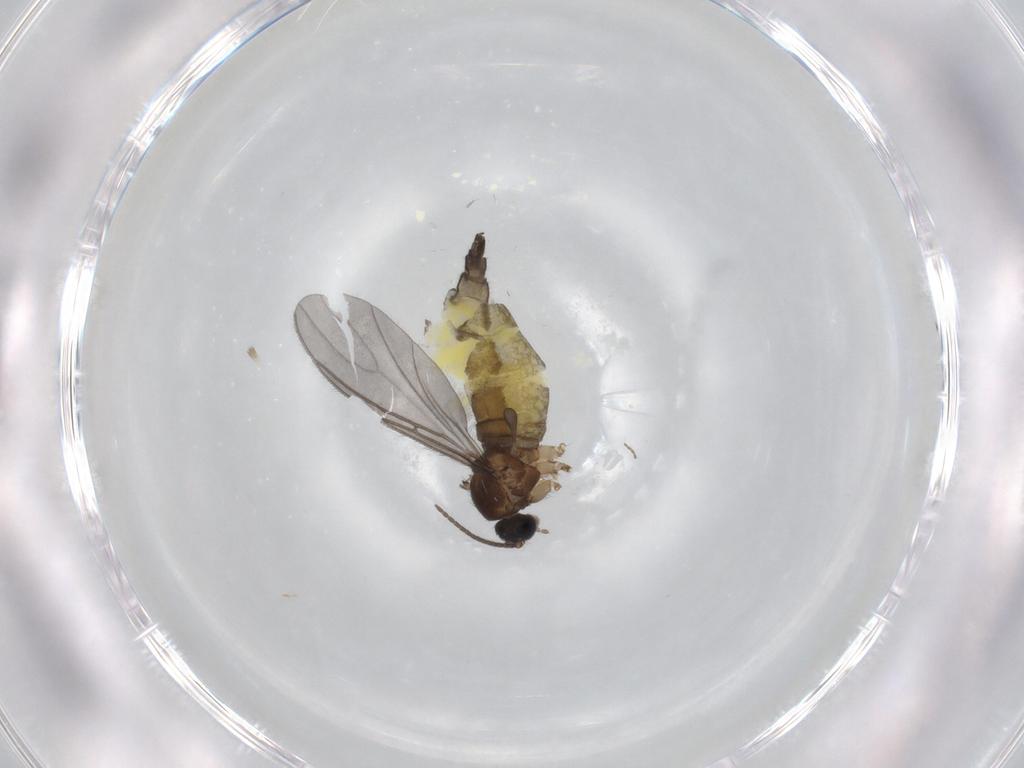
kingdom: Animalia
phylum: Arthropoda
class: Insecta
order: Diptera
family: Sciaridae
